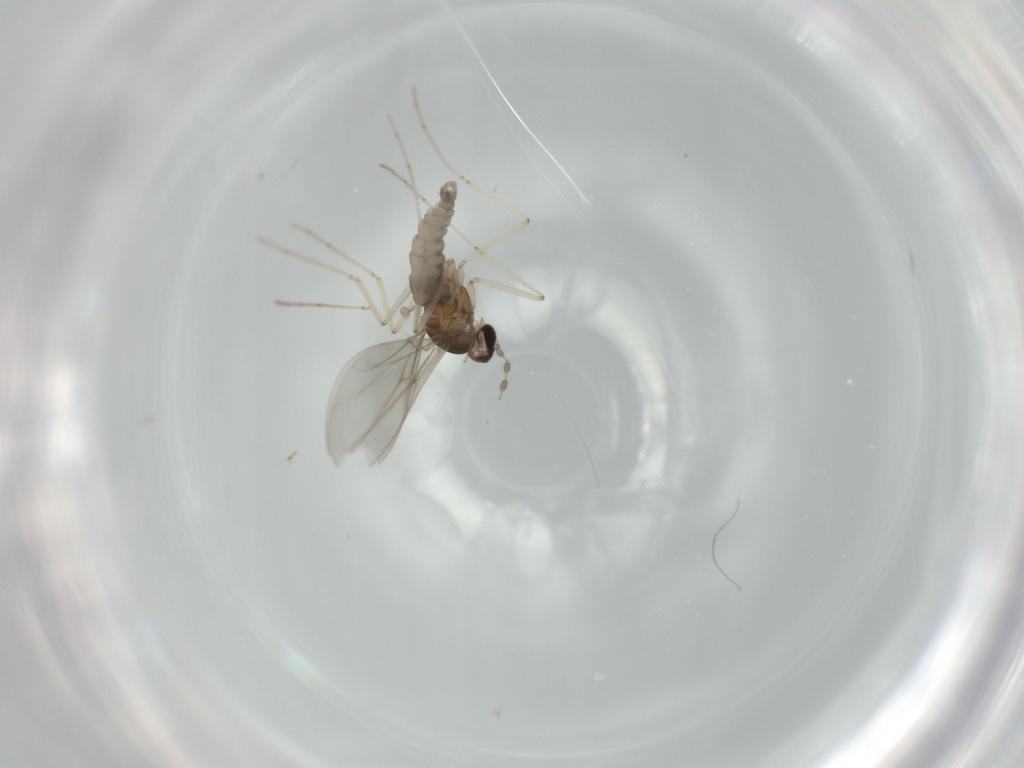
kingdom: Animalia
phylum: Arthropoda
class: Insecta
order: Diptera
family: Cecidomyiidae
